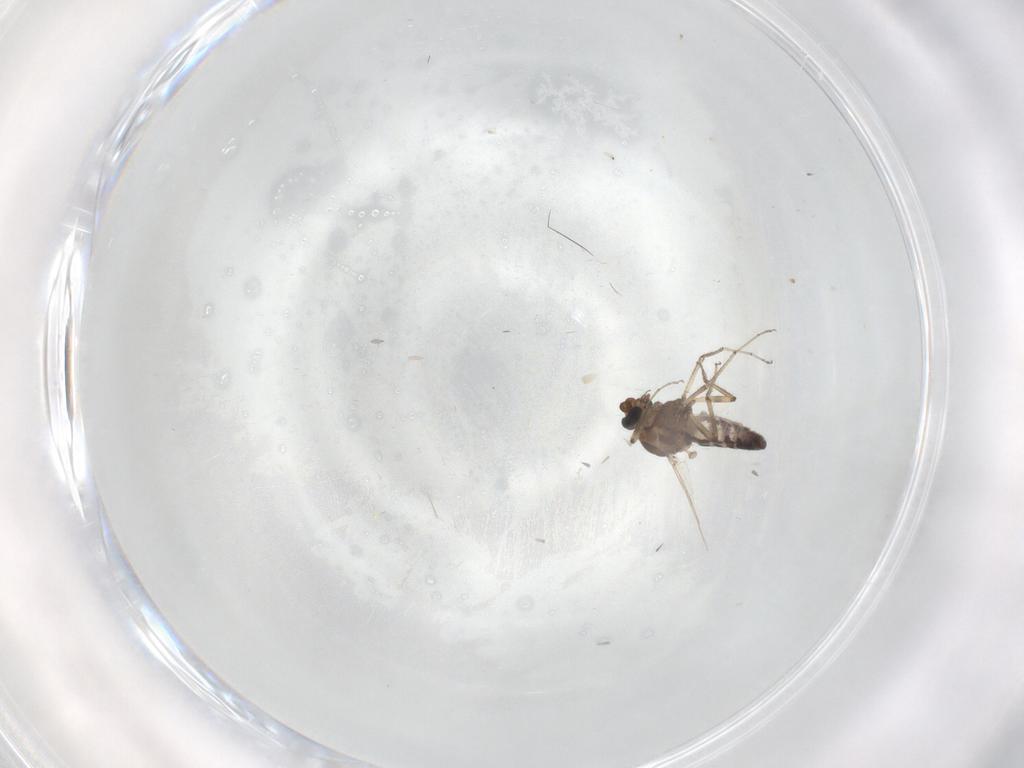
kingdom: Animalia
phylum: Arthropoda
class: Insecta
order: Diptera
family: Ceratopogonidae
